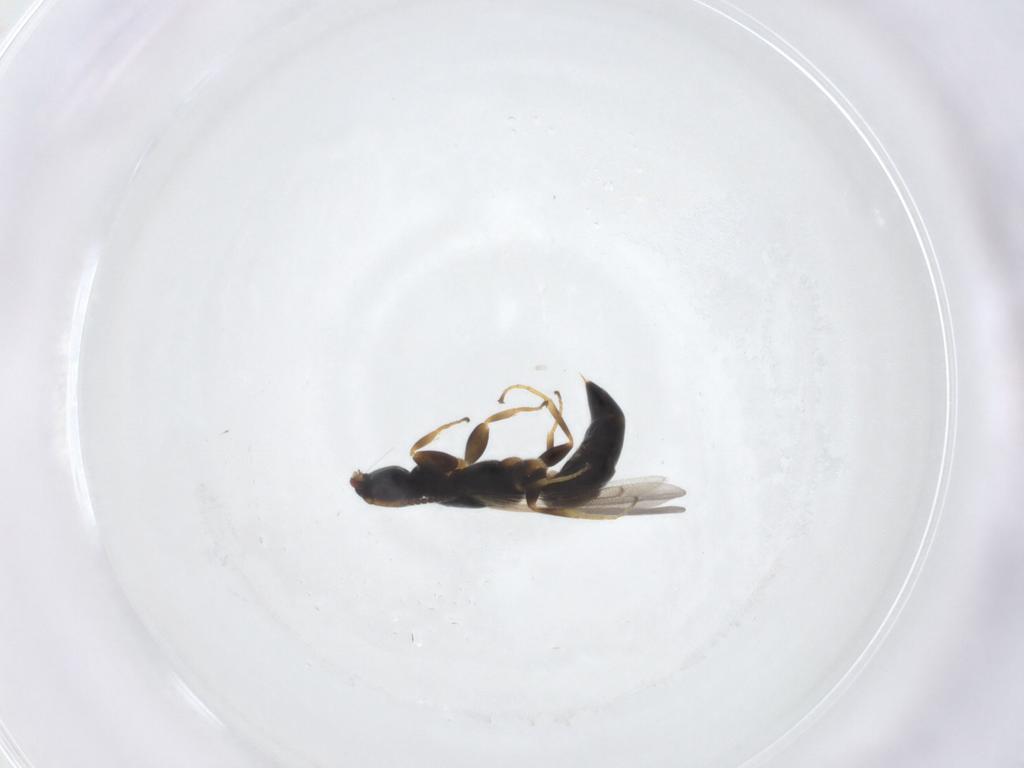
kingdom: Animalia
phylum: Arthropoda
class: Insecta
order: Hymenoptera
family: Bethylidae
